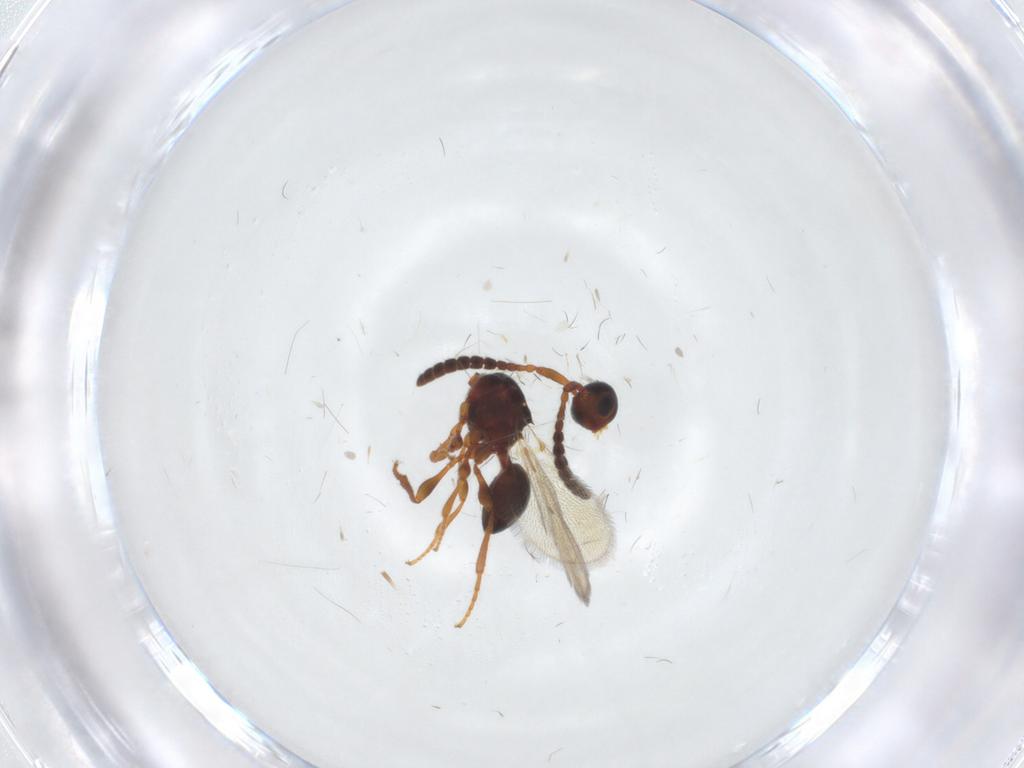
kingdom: Animalia
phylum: Arthropoda
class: Insecta
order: Hymenoptera
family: Diapriidae
